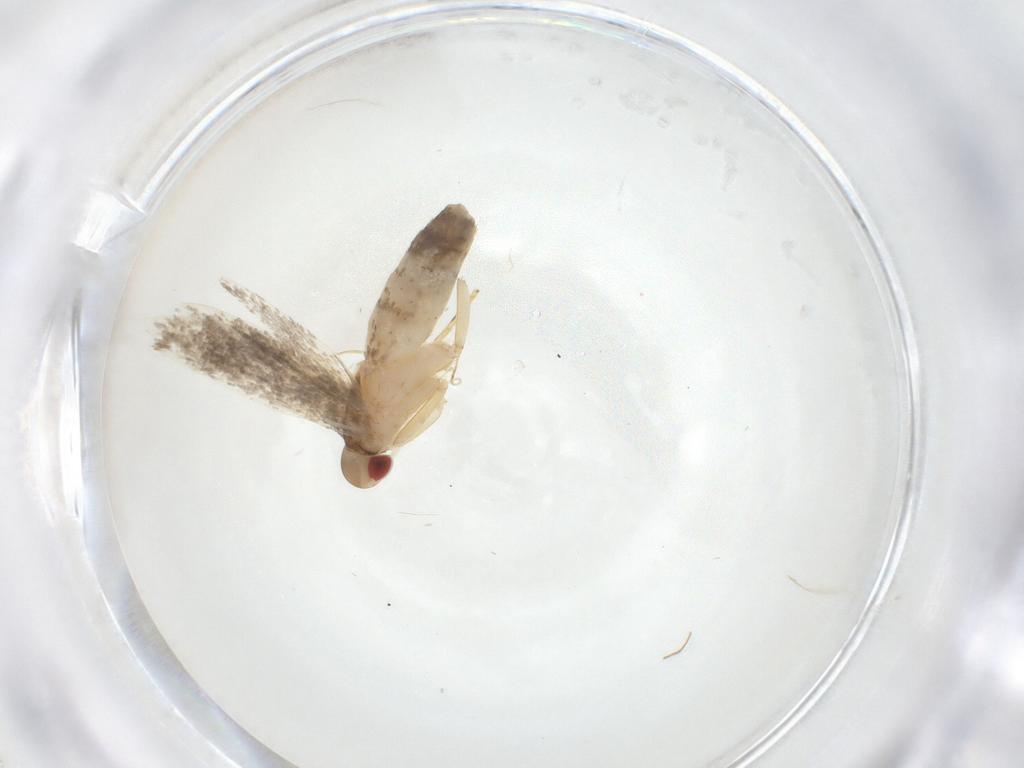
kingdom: Animalia
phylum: Arthropoda
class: Insecta
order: Lepidoptera
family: Cosmopterigidae
